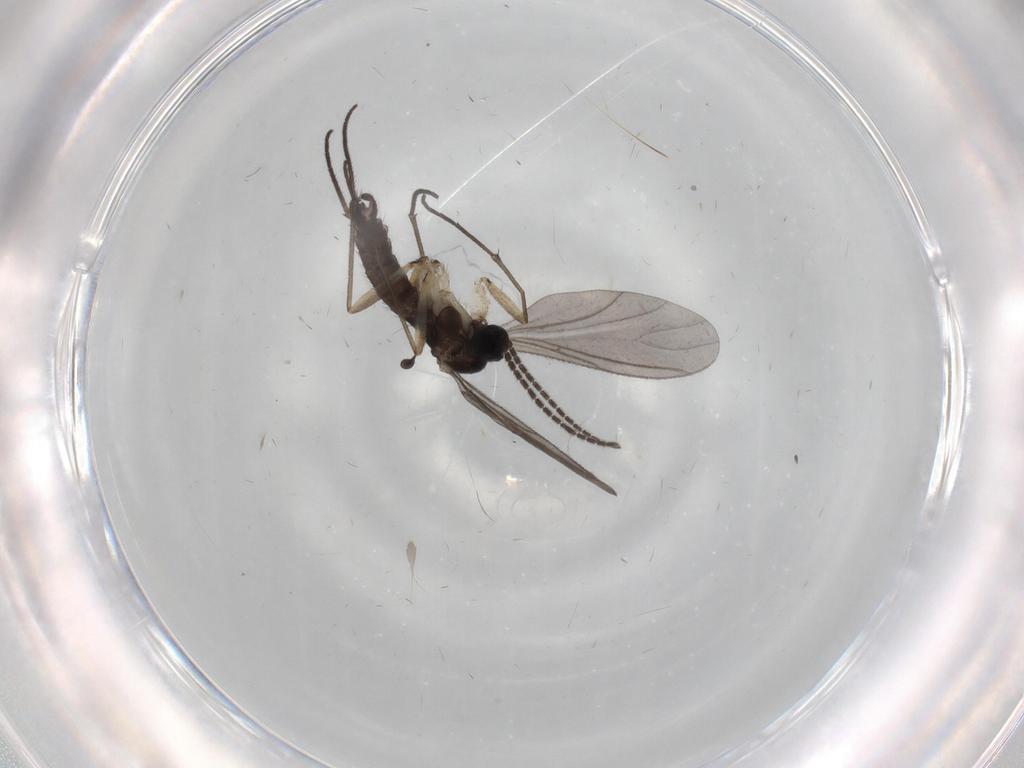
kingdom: Animalia
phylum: Arthropoda
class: Insecta
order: Diptera
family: Sciaridae
